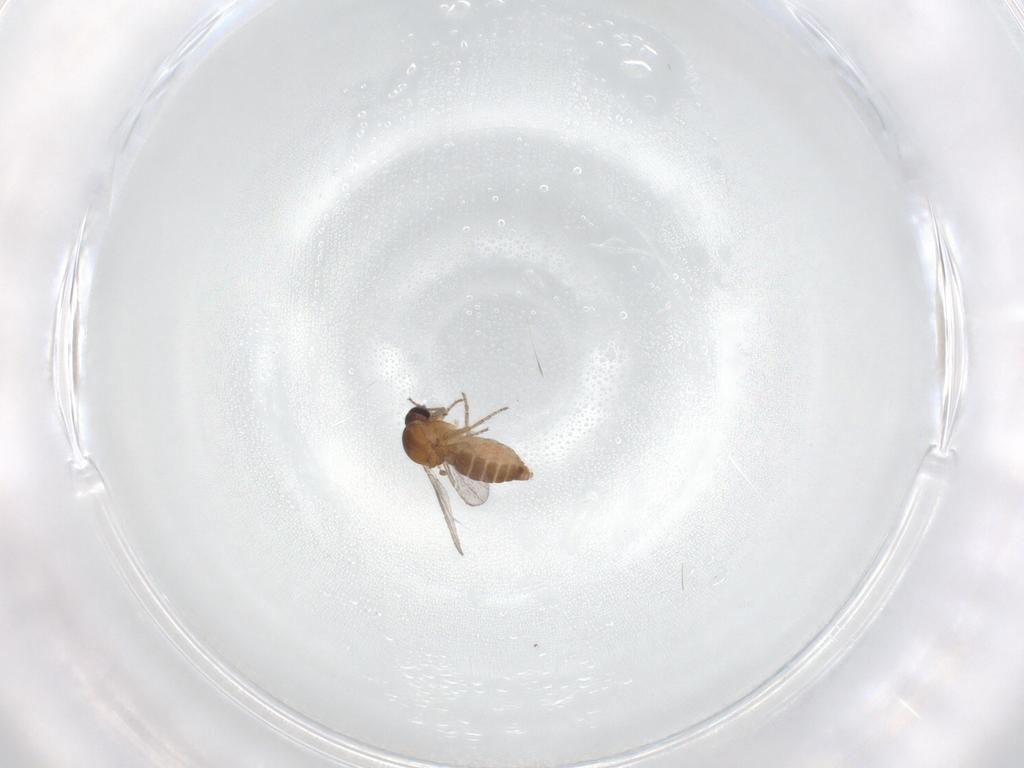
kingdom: Animalia
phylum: Arthropoda
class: Insecta
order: Diptera
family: Ceratopogonidae
